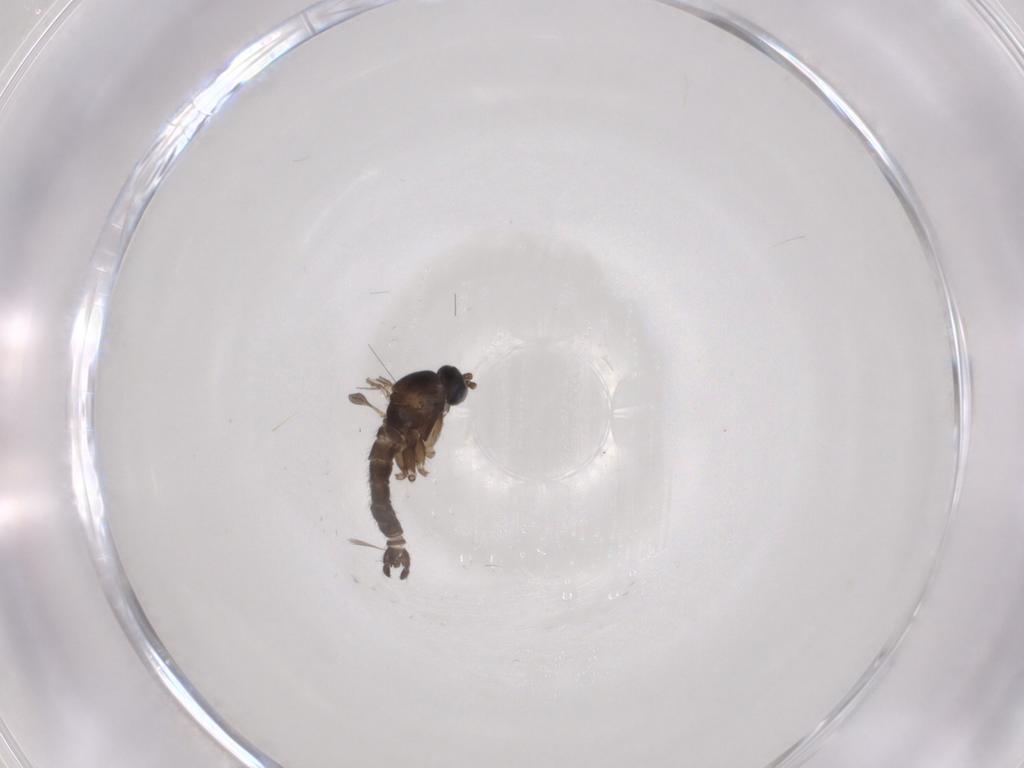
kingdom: Animalia
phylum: Arthropoda
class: Insecta
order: Diptera
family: Sciaridae
